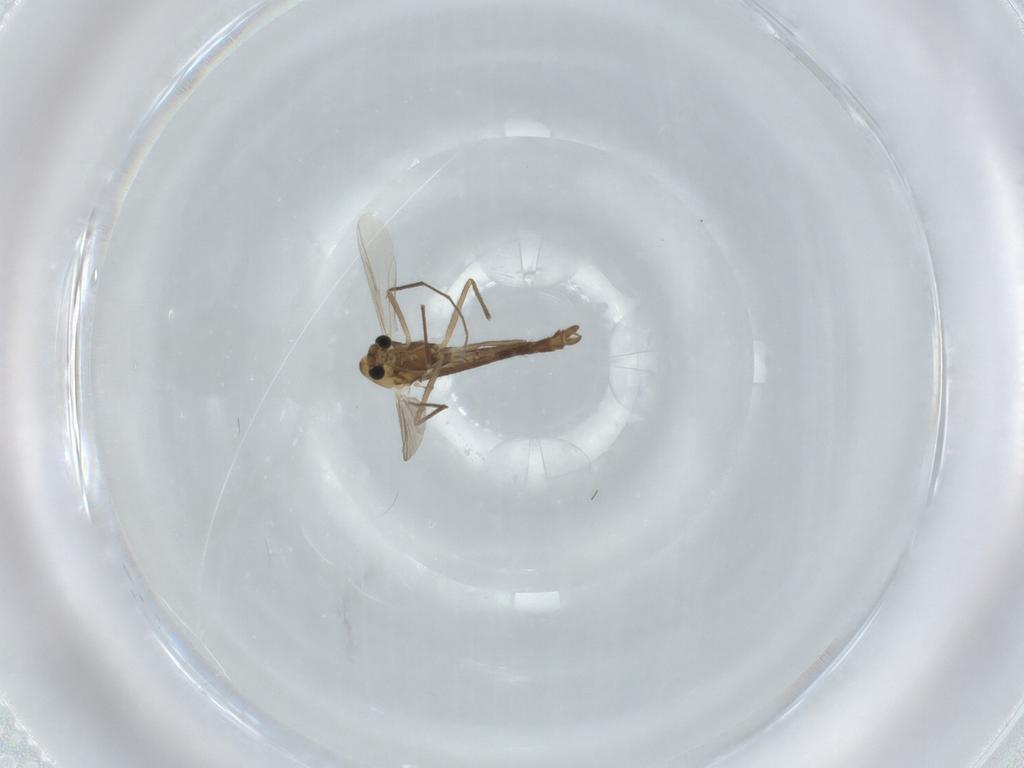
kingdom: Animalia
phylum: Arthropoda
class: Insecta
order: Diptera
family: Chironomidae
